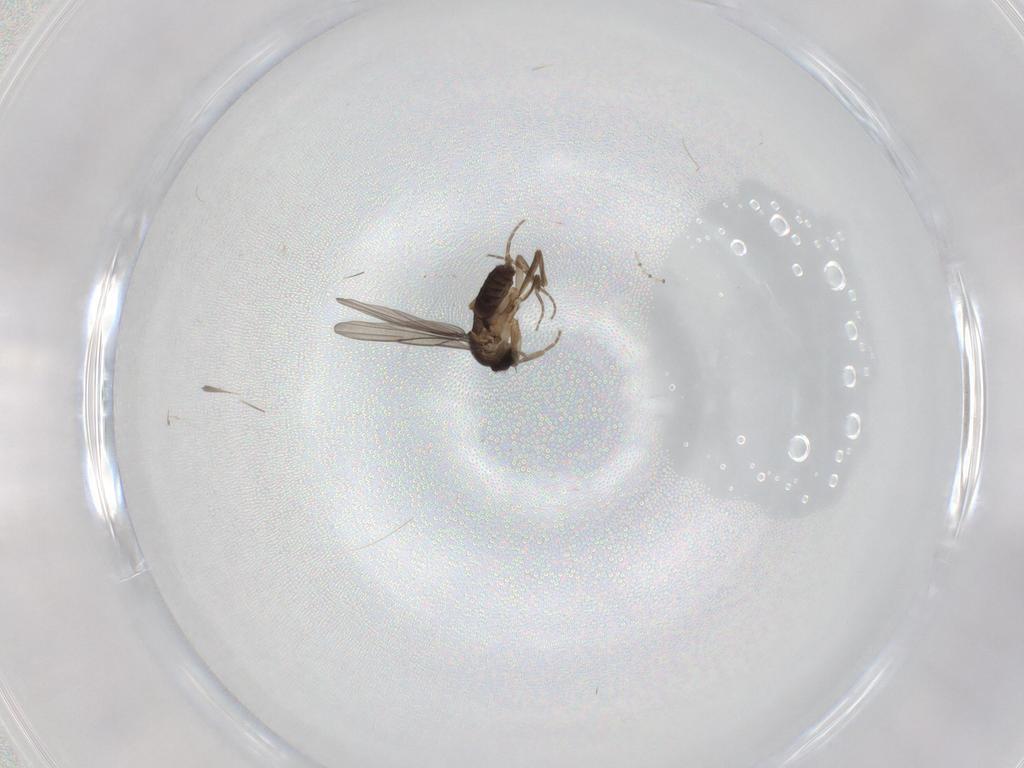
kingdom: Animalia
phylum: Arthropoda
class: Insecta
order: Diptera
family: Phoridae
